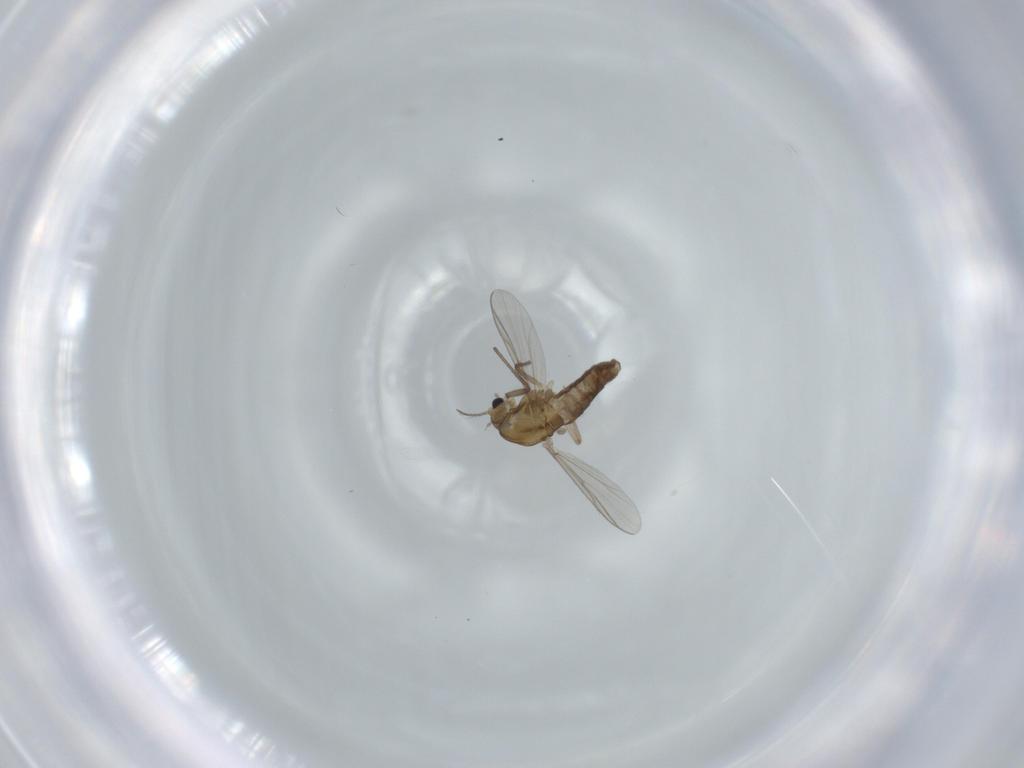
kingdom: Animalia
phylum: Arthropoda
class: Insecta
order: Diptera
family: Chironomidae
